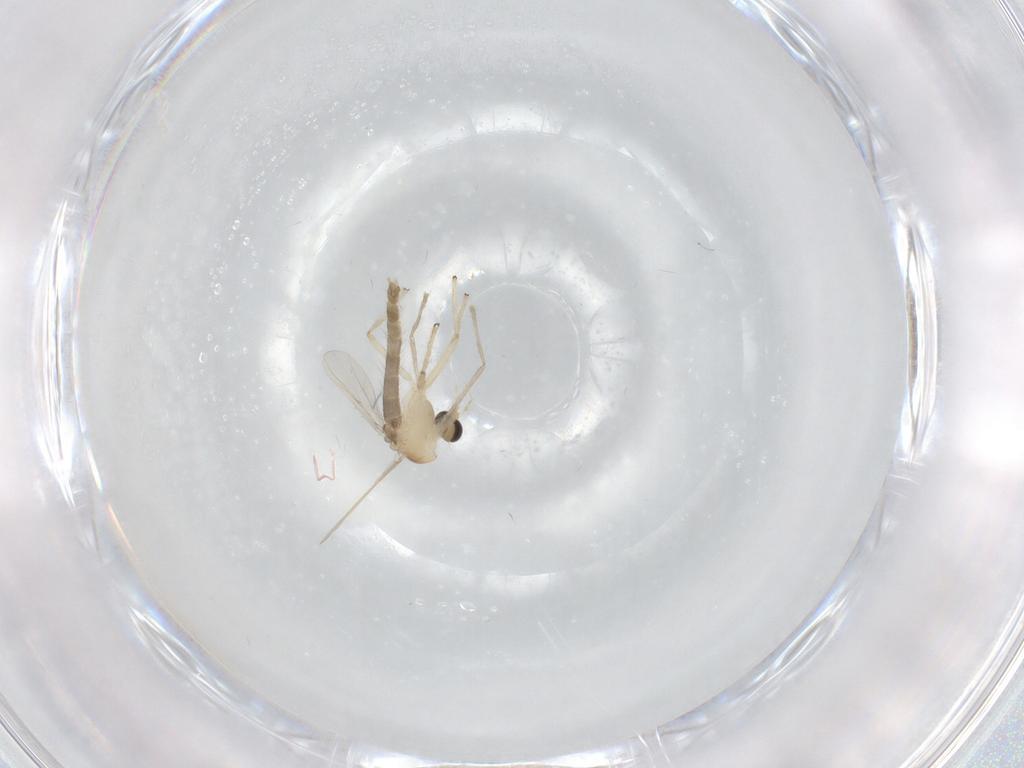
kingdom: Animalia
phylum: Arthropoda
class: Insecta
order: Diptera
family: Chironomidae
